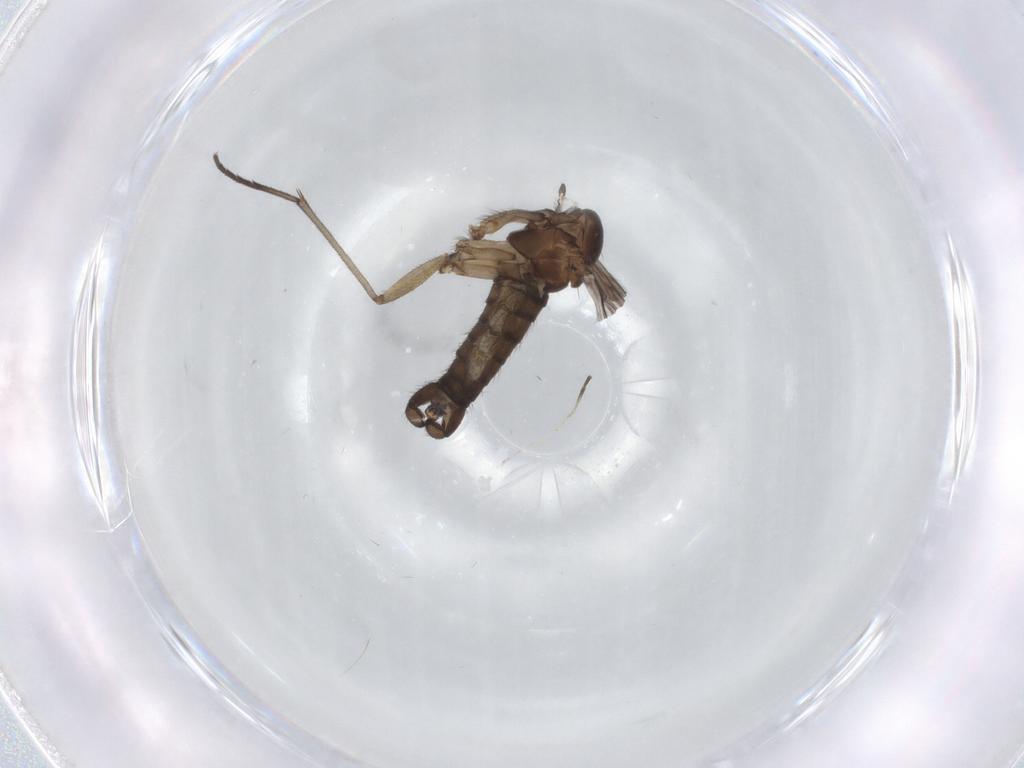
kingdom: Animalia
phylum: Arthropoda
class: Insecta
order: Diptera
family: Sciaridae
